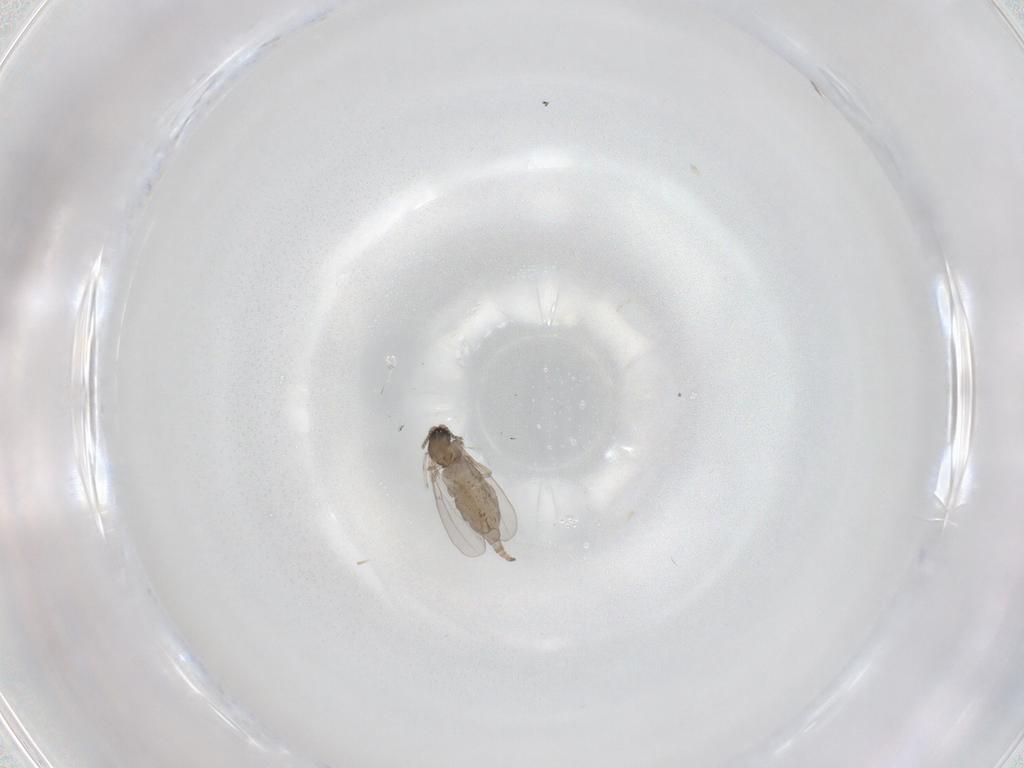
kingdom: Animalia
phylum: Arthropoda
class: Insecta
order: Diptera
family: Cecidomyiidae
